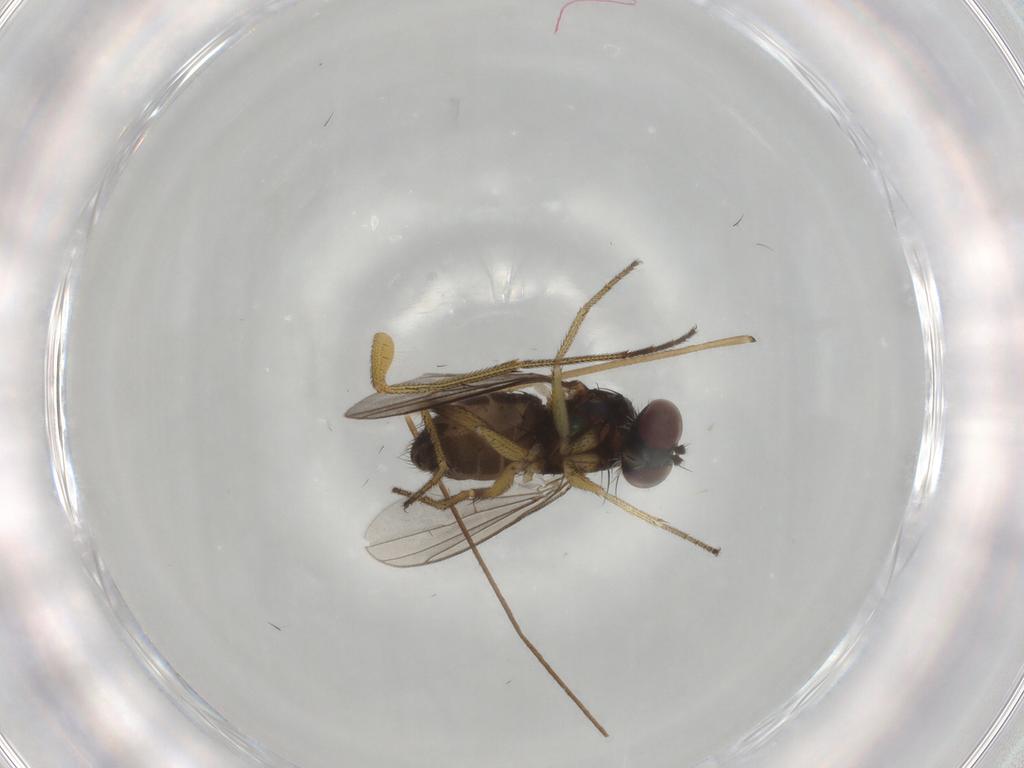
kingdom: Animalia
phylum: Arthropoda
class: Insecta
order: Diptera
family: Dolichopodidae
